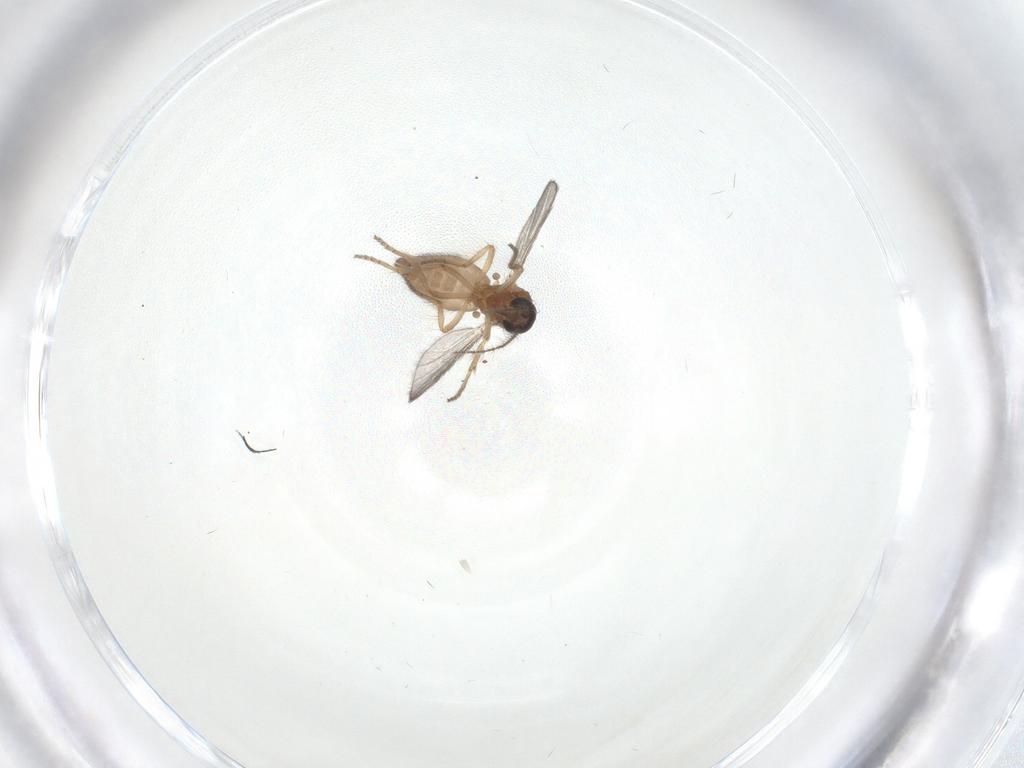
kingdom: Animalia
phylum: Arthropoda
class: Insecta
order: Diptera
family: Ceratopogonidae
